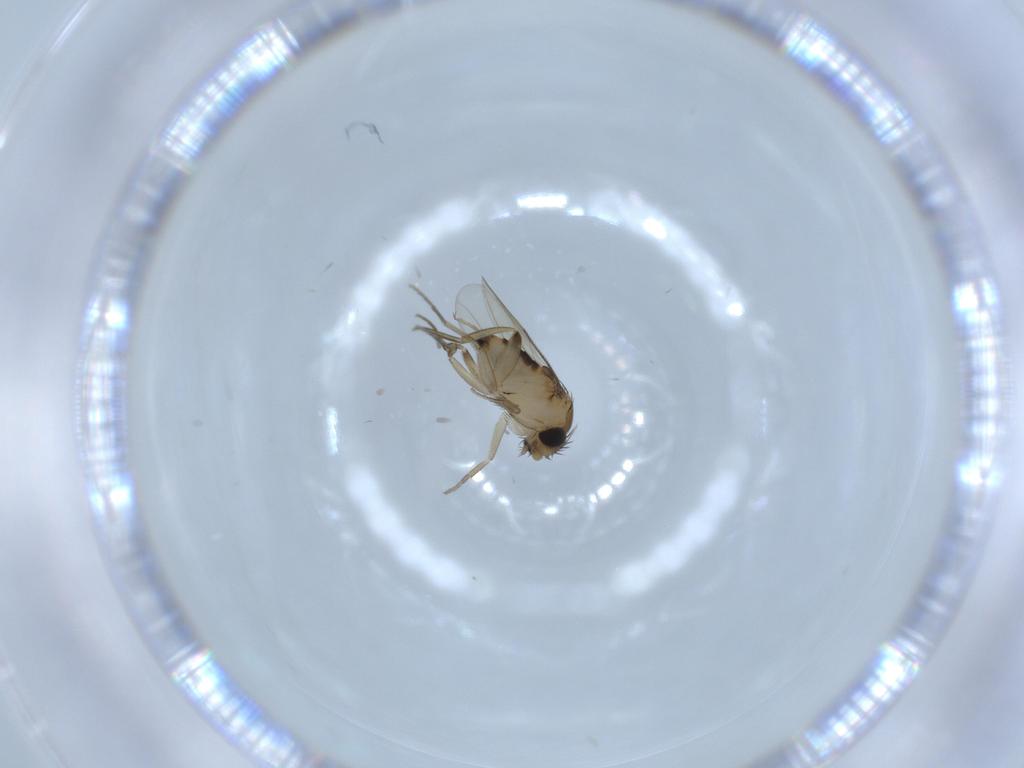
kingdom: Animalia
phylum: Arthropoda
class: Insecta
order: Diptera
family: Phoridae
